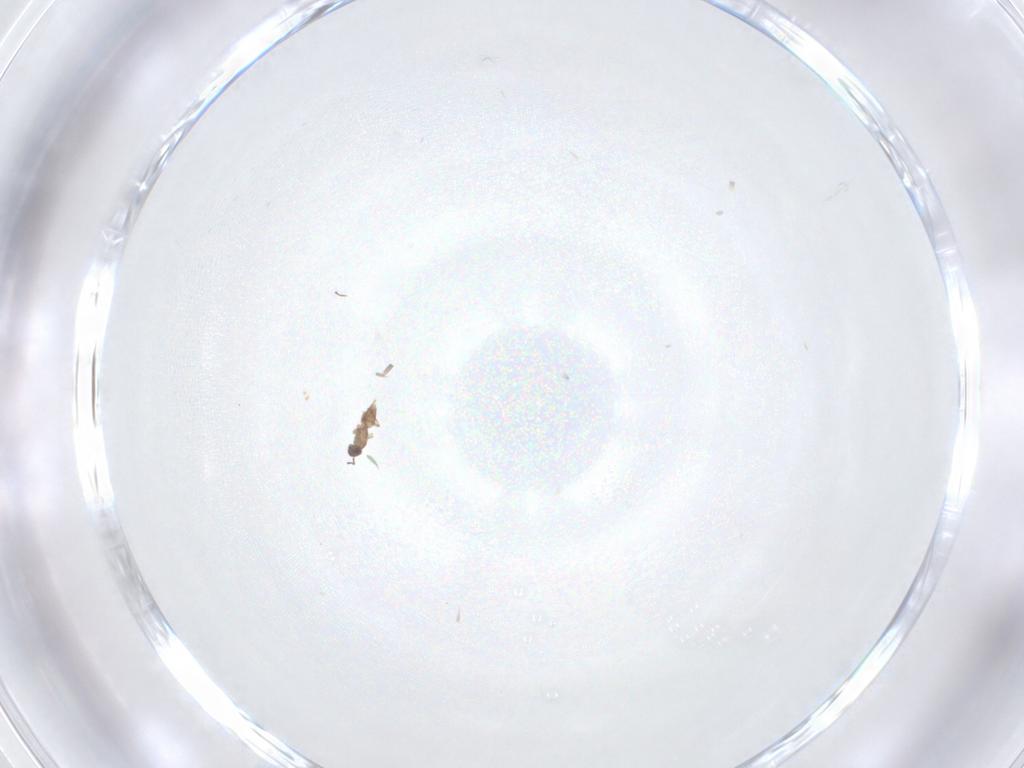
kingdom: Animalia
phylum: Arthropoda
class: Insecta
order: Hymenoptera
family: Mymaridae
